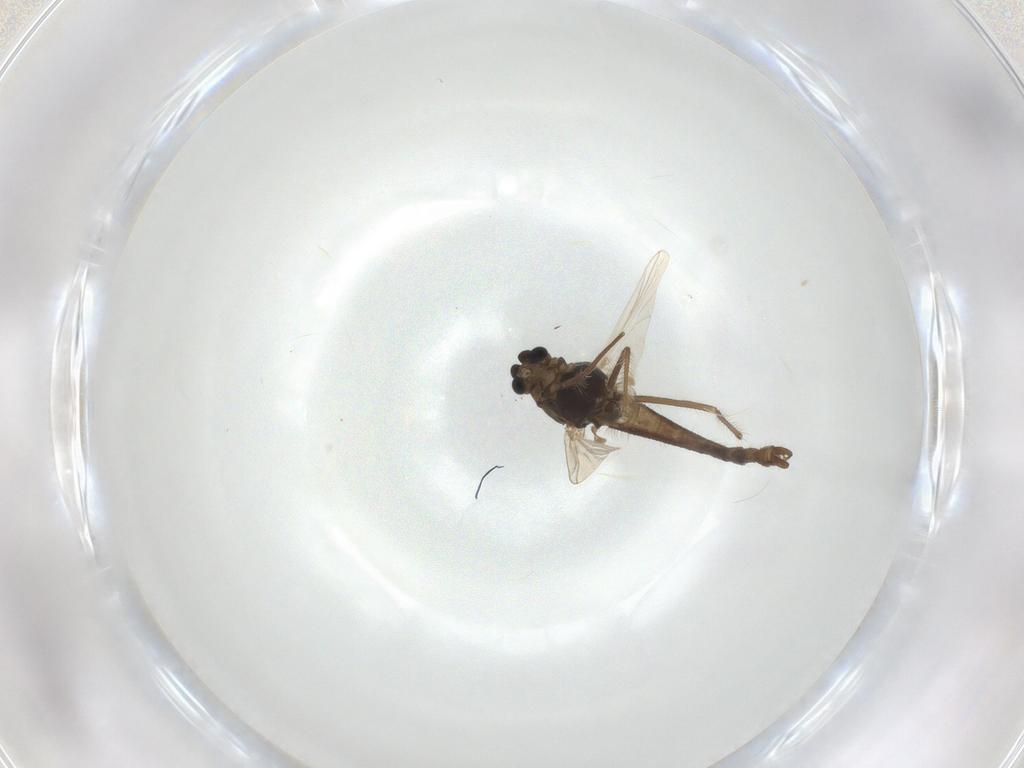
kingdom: Animalia
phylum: Arthropoda
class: Insecta
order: Diptera
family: Chironomidae
